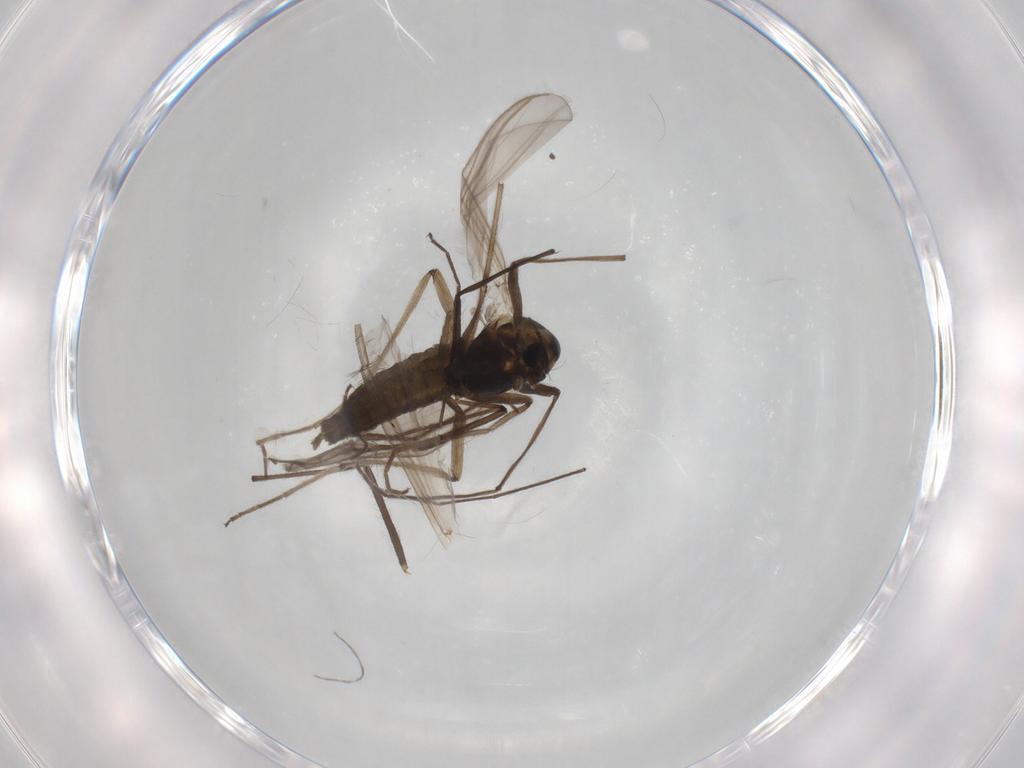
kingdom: Animalia
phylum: Arthropoda
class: Insecta
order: Diptera
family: Chironomidae
